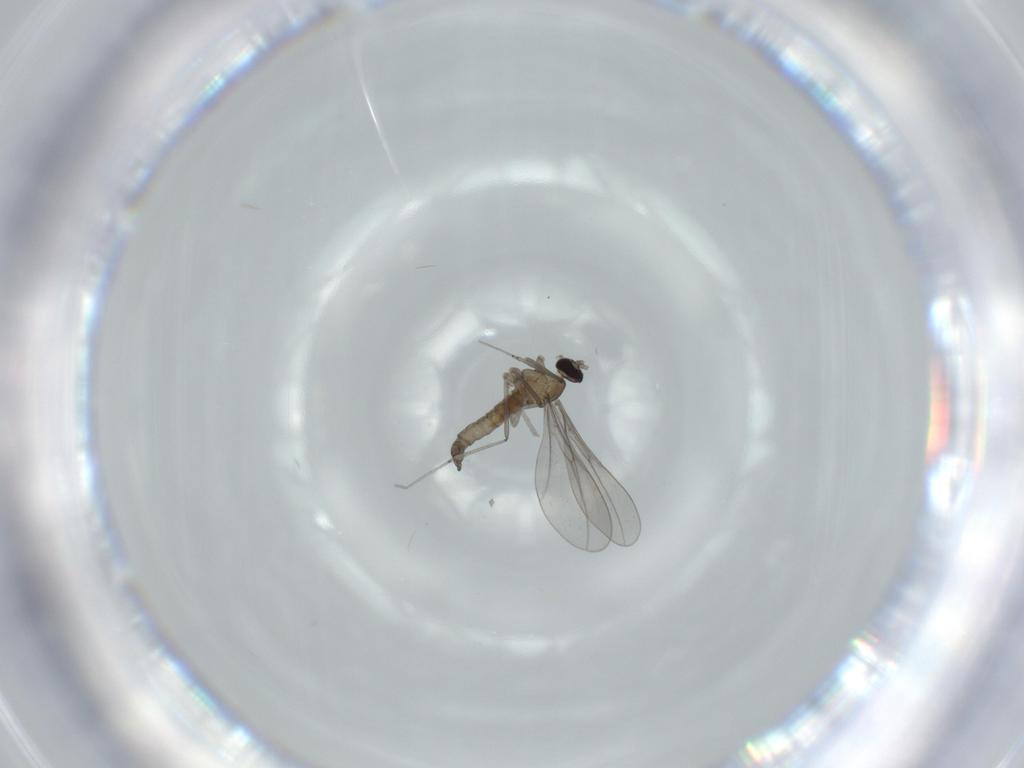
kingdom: Animalia
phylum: Arthropoda
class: Insecta
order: Diptera
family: Cecidomyiidae
